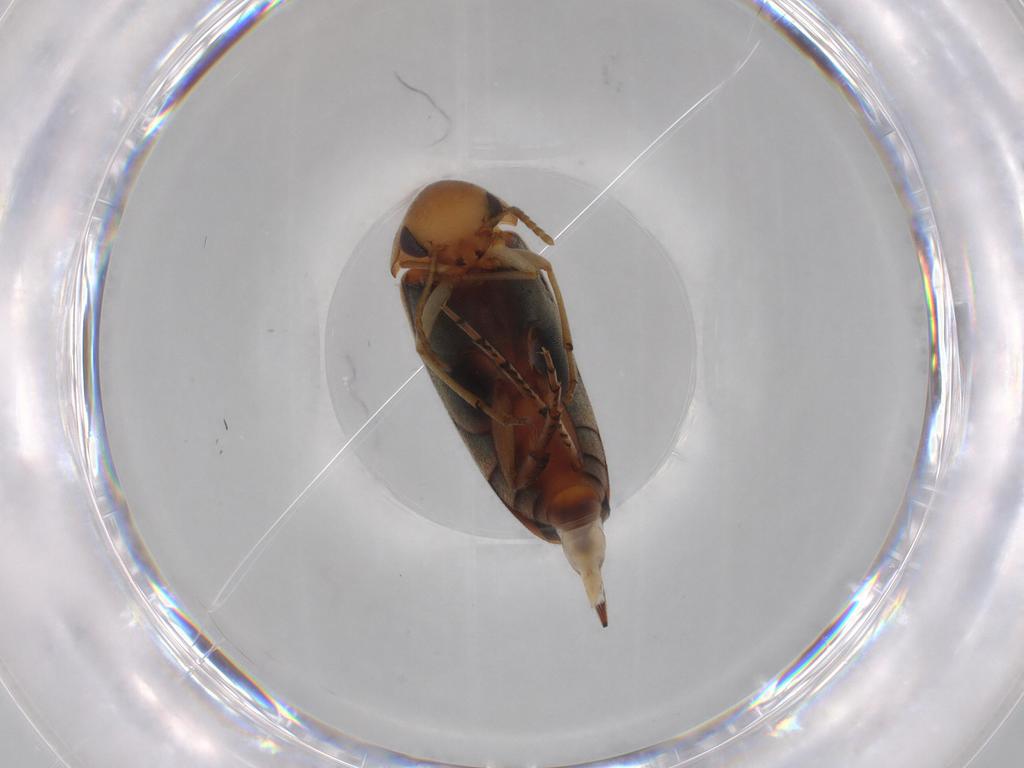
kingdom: Animalia
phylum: Arthropoda
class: Insecta
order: Coleoptera
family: Mordellidae
